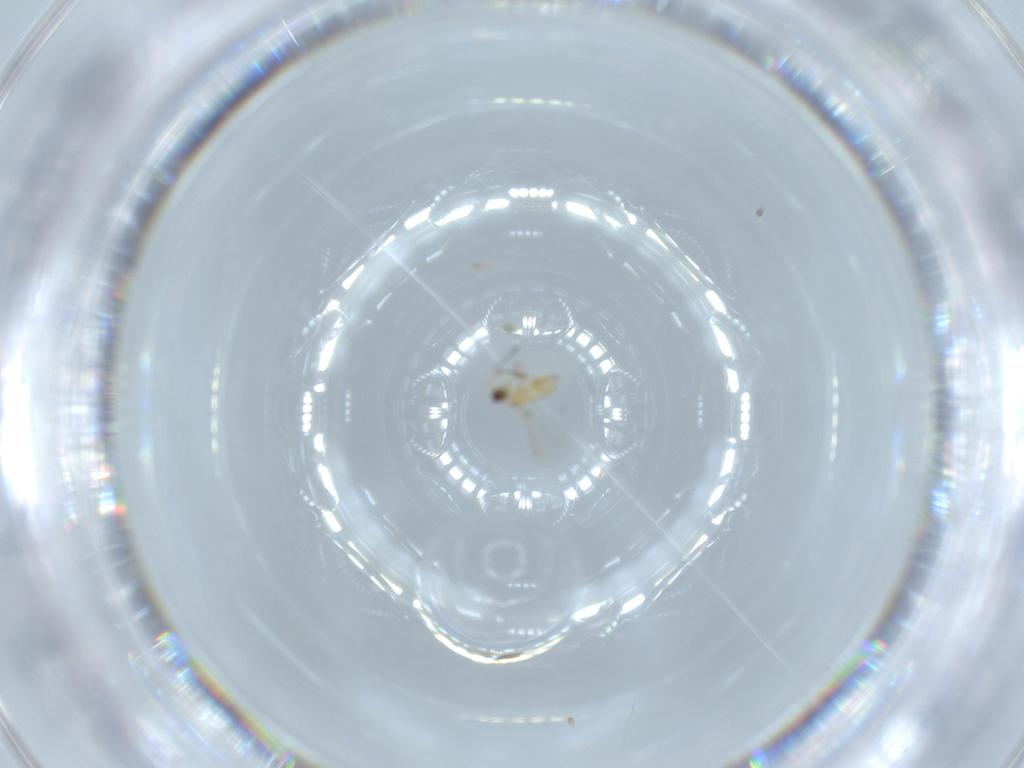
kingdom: Animalia
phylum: Arthropoda
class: Insecta
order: Hymenoptera
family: Mymaridae
